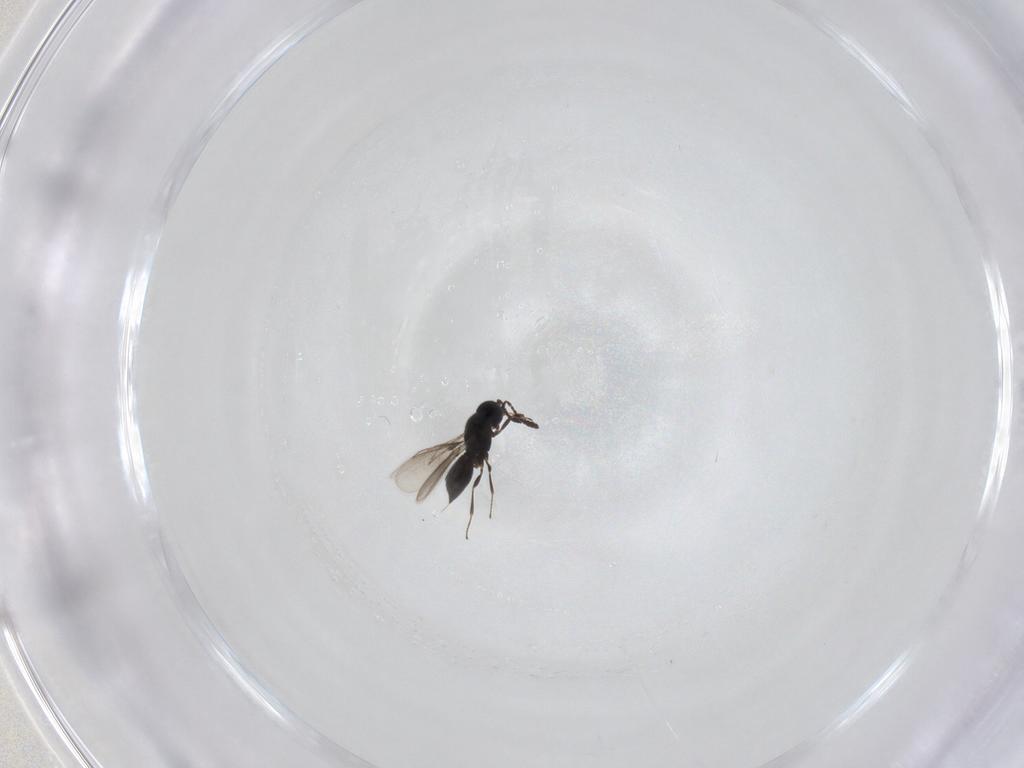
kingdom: Animalia
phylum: Arthropoda
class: Insecta
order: Hymenoptera
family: Scelionidae
